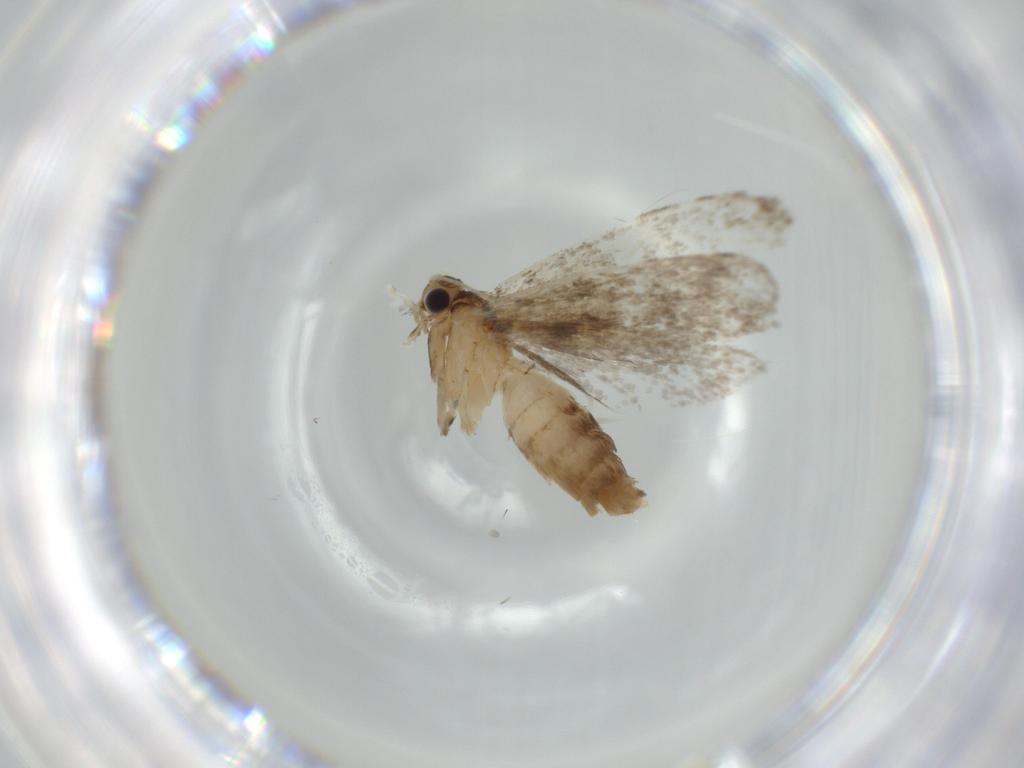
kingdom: Animalia
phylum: Arthropoda
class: Insecta
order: Lepidoptera
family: Tineidae
